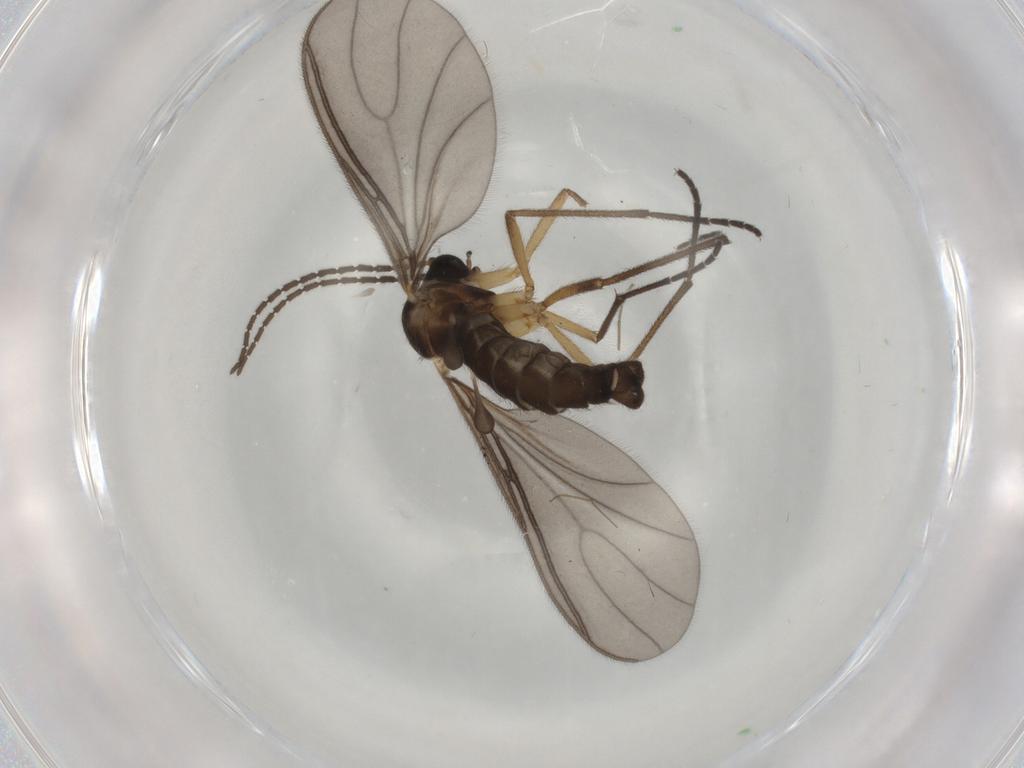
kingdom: Animalia
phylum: Arthropoda
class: Insecta
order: Diptera
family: Sciaridae
